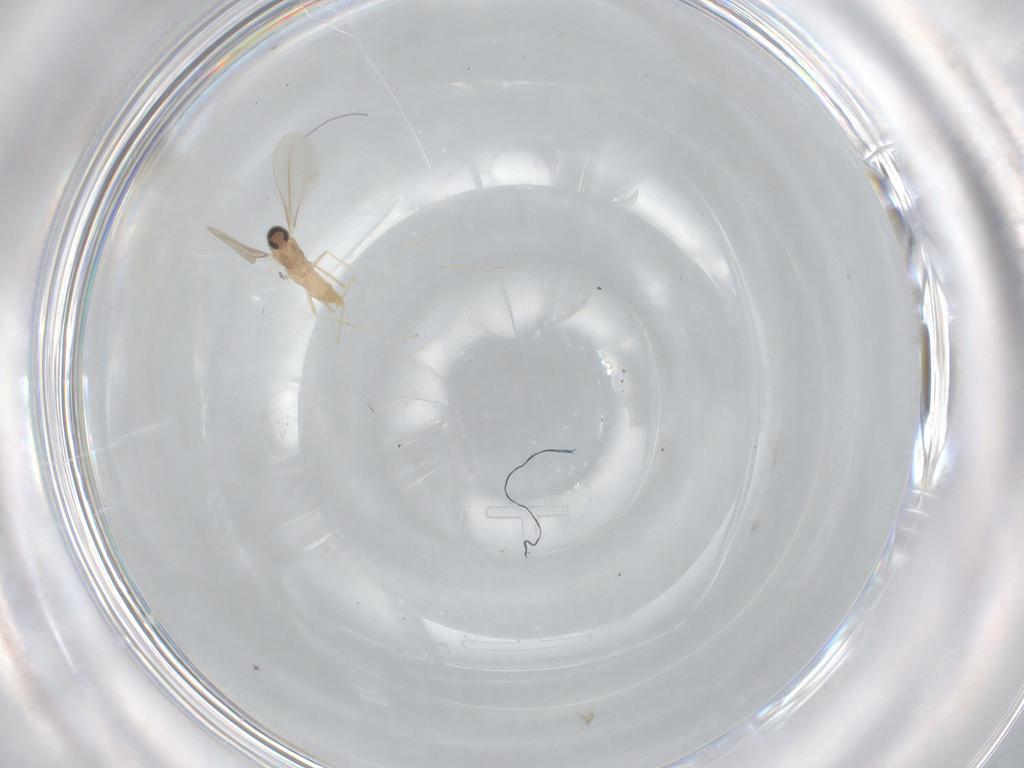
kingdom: Animalia
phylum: Arthropoda
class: Insecta
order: Diptera
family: Cecidomyiidae
